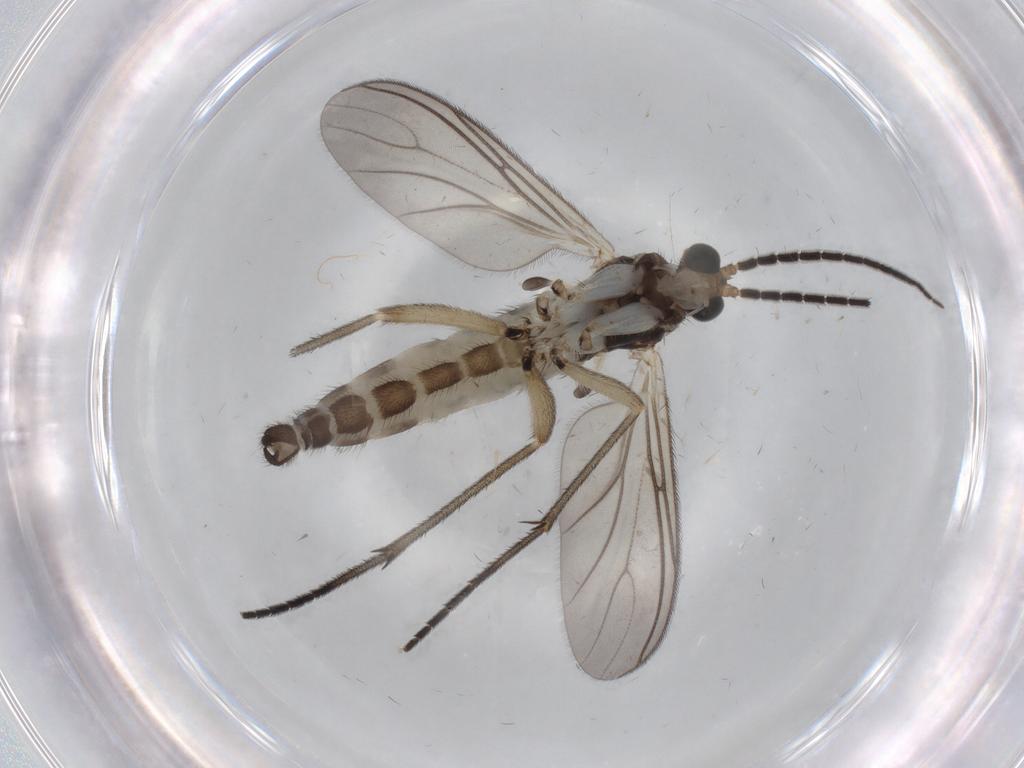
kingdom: Animalia
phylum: Arthropoda
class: Insecta
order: Diptera
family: Sciaridae
